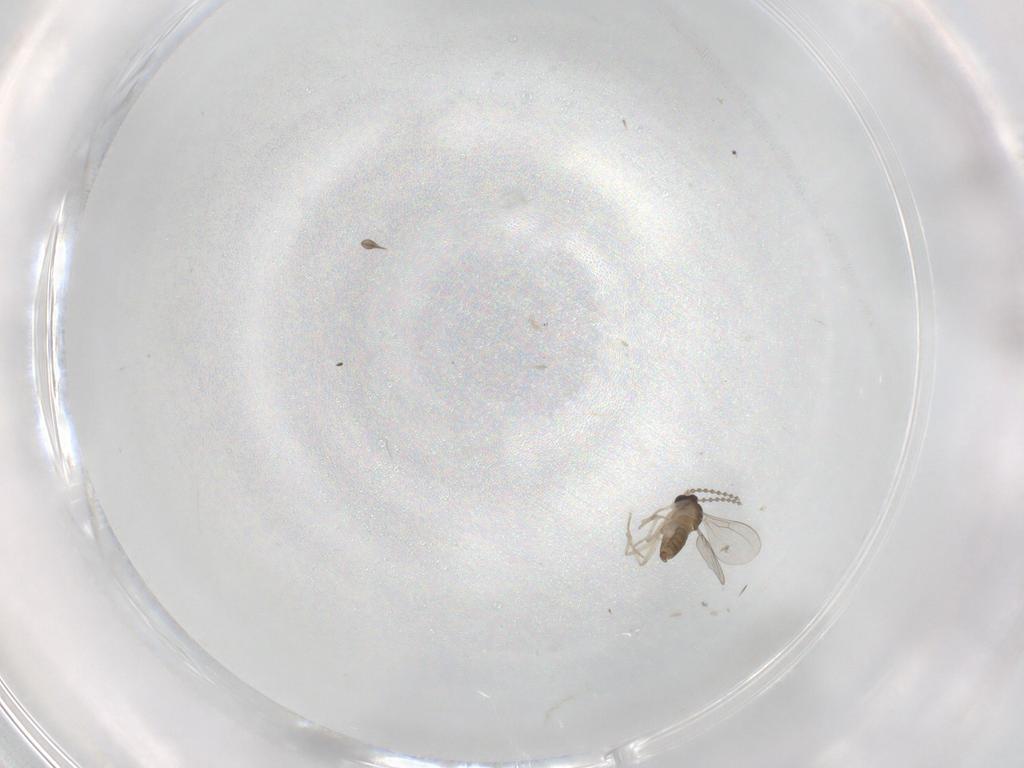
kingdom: Animalia
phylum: Arthropoda
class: Insecta
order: Diptera
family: Cecidomyiidae
